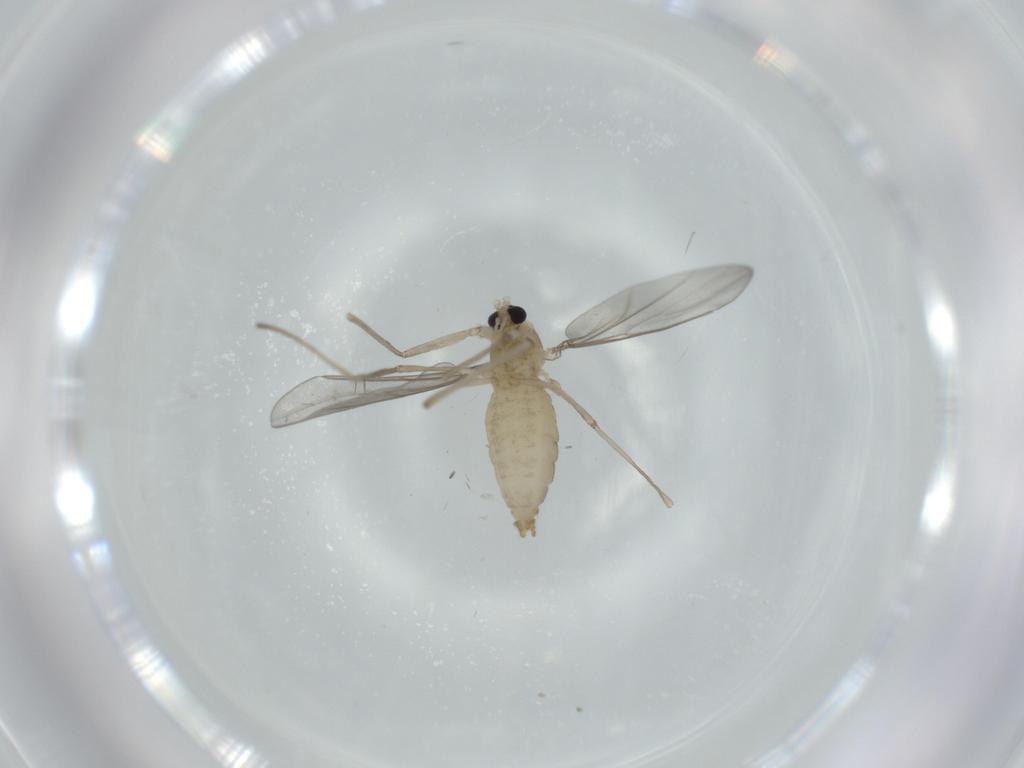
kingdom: Animalia
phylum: Arthropoda
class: Insecta
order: Diptera
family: Cecidomyiidae
